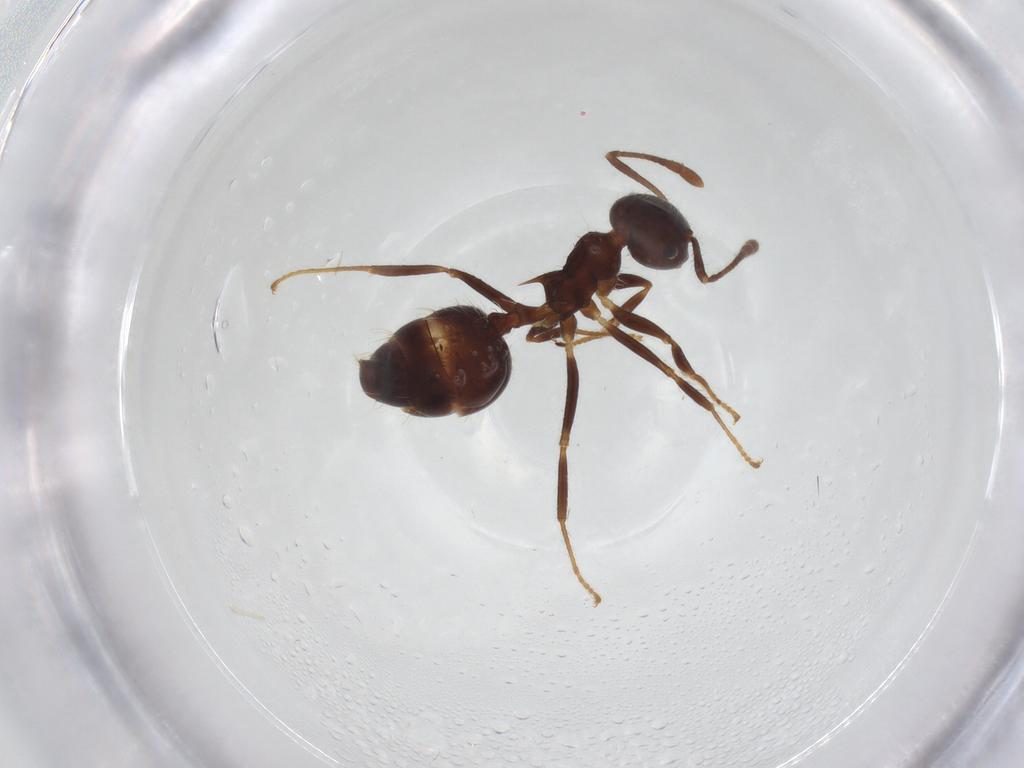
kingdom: Animalia
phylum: Arthropoda
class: Insecta
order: Hymenoptera
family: Formicidae
